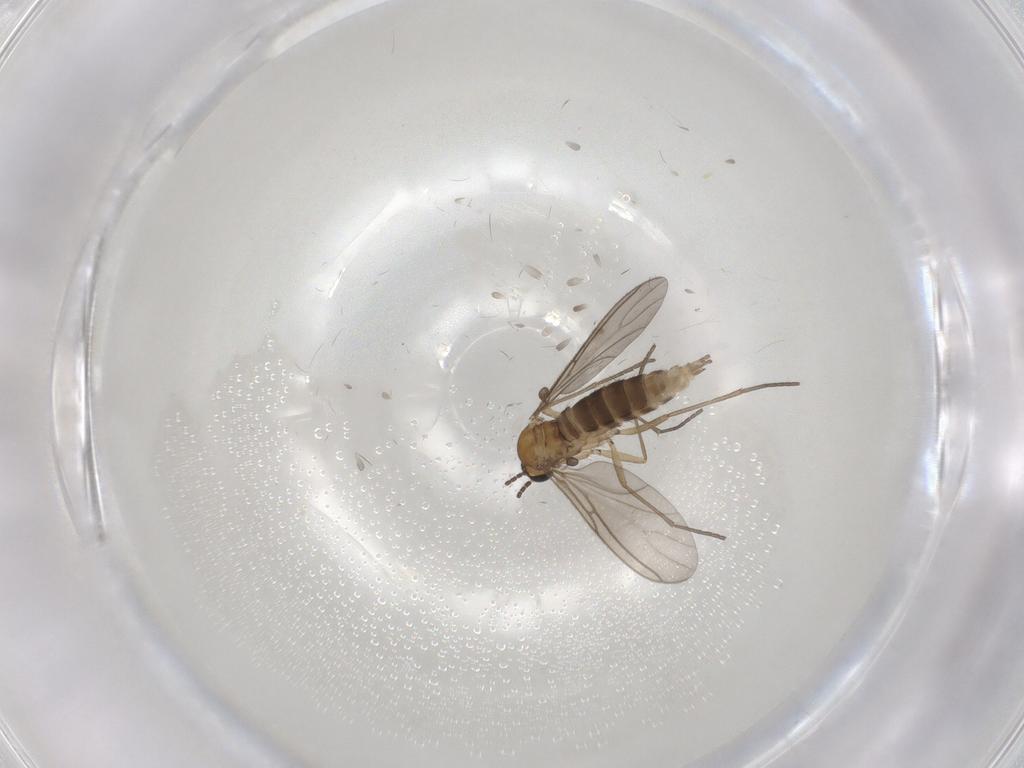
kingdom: Animalia
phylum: Arthropoda
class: Insecta
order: Diptera
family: Sciaridae
